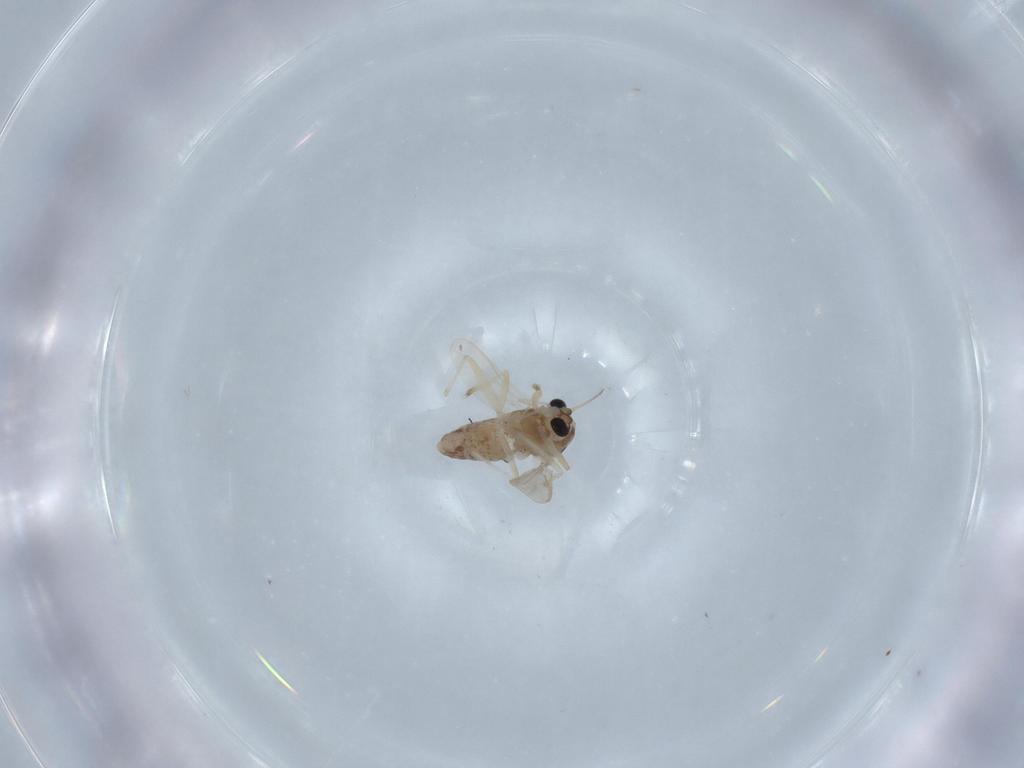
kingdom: Animalia
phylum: Arthropoda
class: Insecta
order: Diptera
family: Chironomidae
